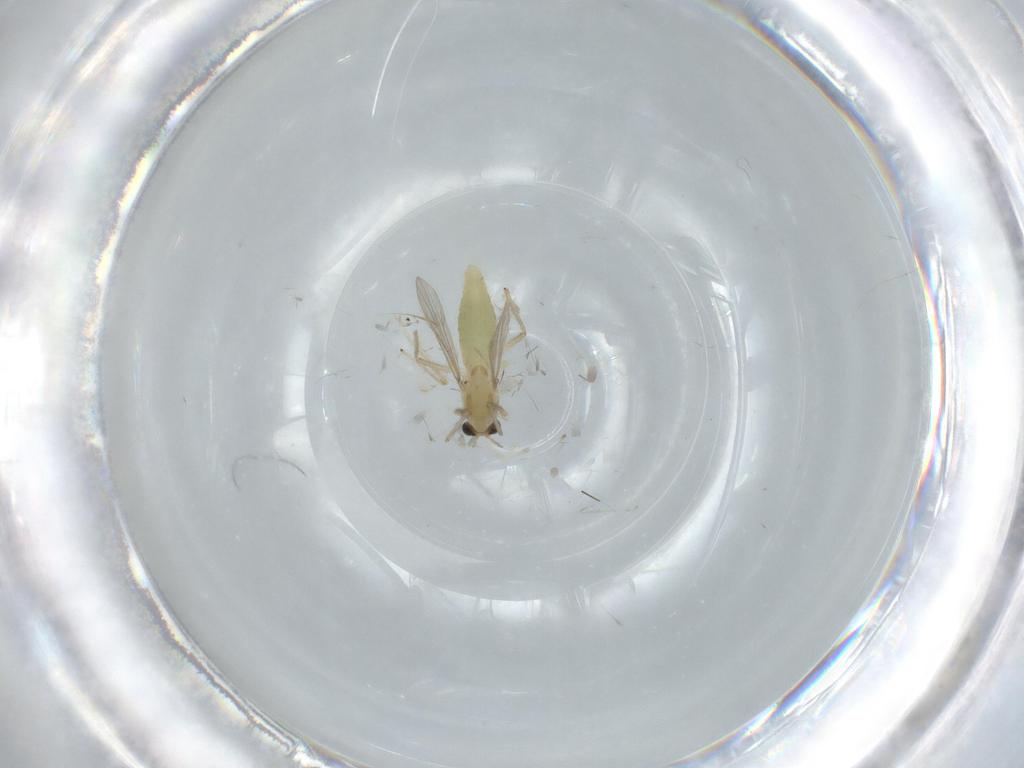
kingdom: Animalia
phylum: Arthropoda
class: Insecta
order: Diptera
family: Chironomidae
